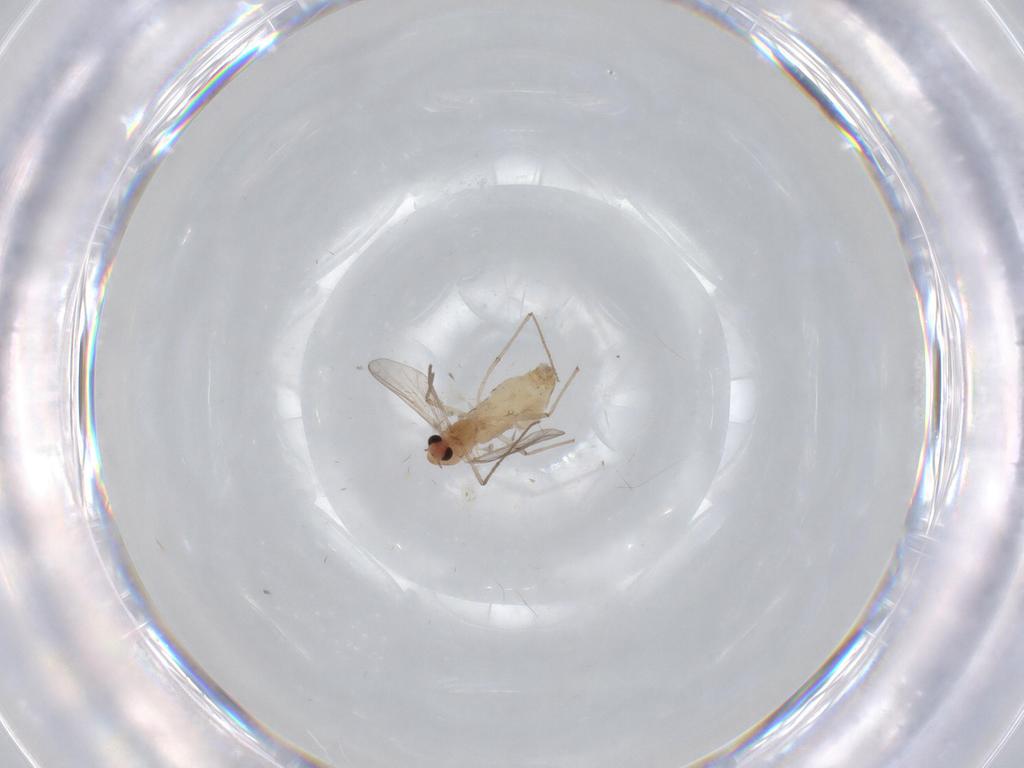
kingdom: Animalia
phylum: Arthropoda
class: Insecta
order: Diptera
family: Chironomidae
